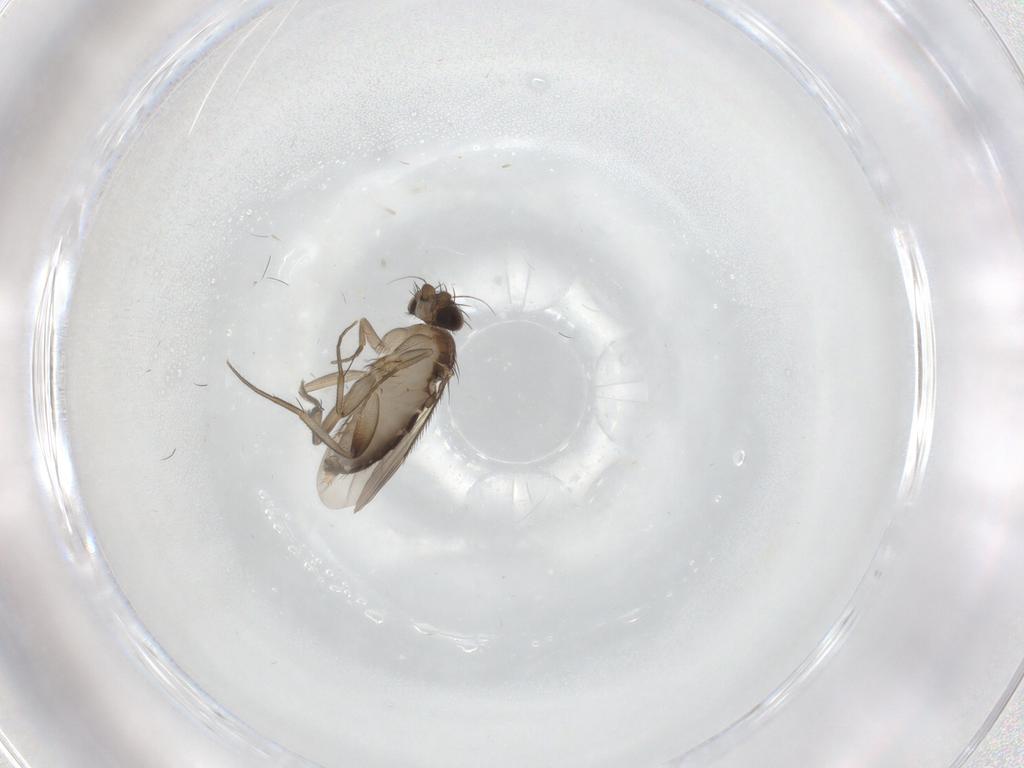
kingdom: Animalia
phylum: Arthropoda
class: Insecta
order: Diptera
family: Phoridae
